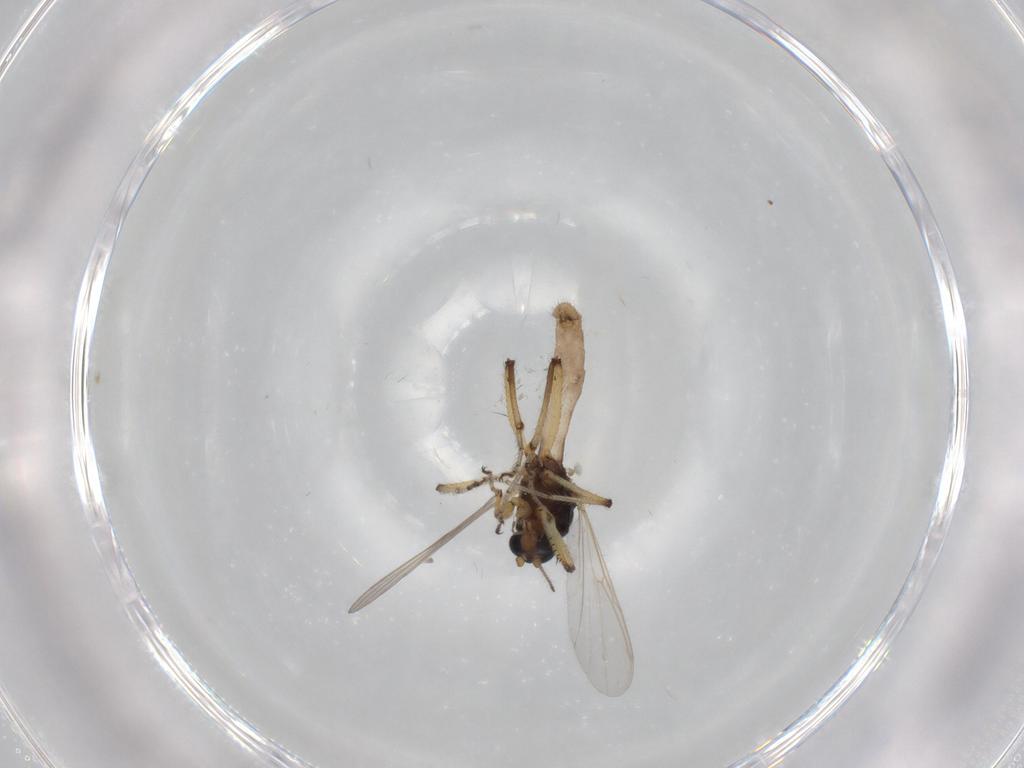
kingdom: Animalia
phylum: Arthropoda
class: Insecta
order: Diptera
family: Ceratopogonidae
